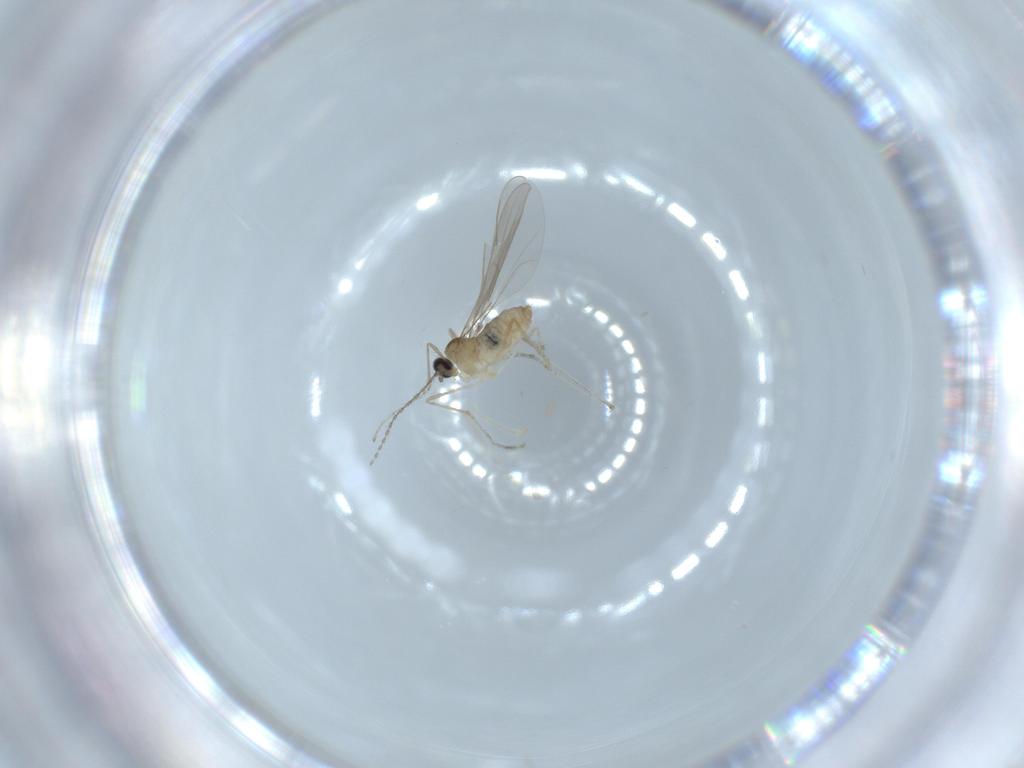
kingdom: Animalia
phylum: Arthropoda
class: Insecta
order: Diptera
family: Cecidomyiidae
